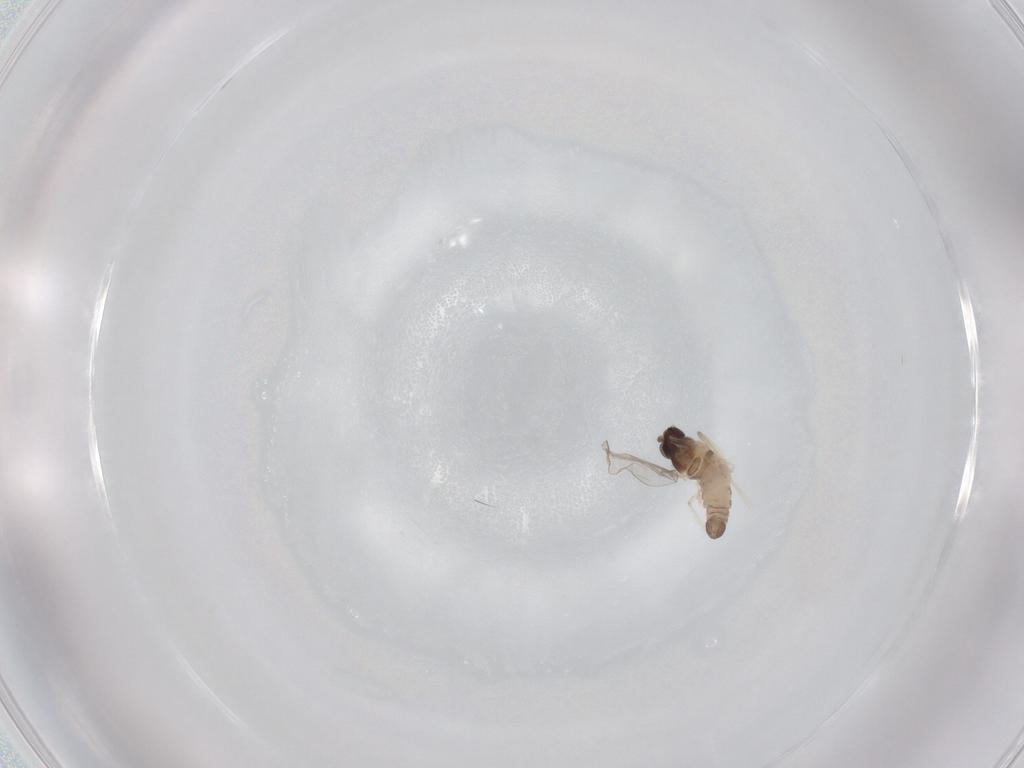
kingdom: Animalia
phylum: Arthropoda
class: Insecta
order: Diptera
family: Cecidomyiidae
